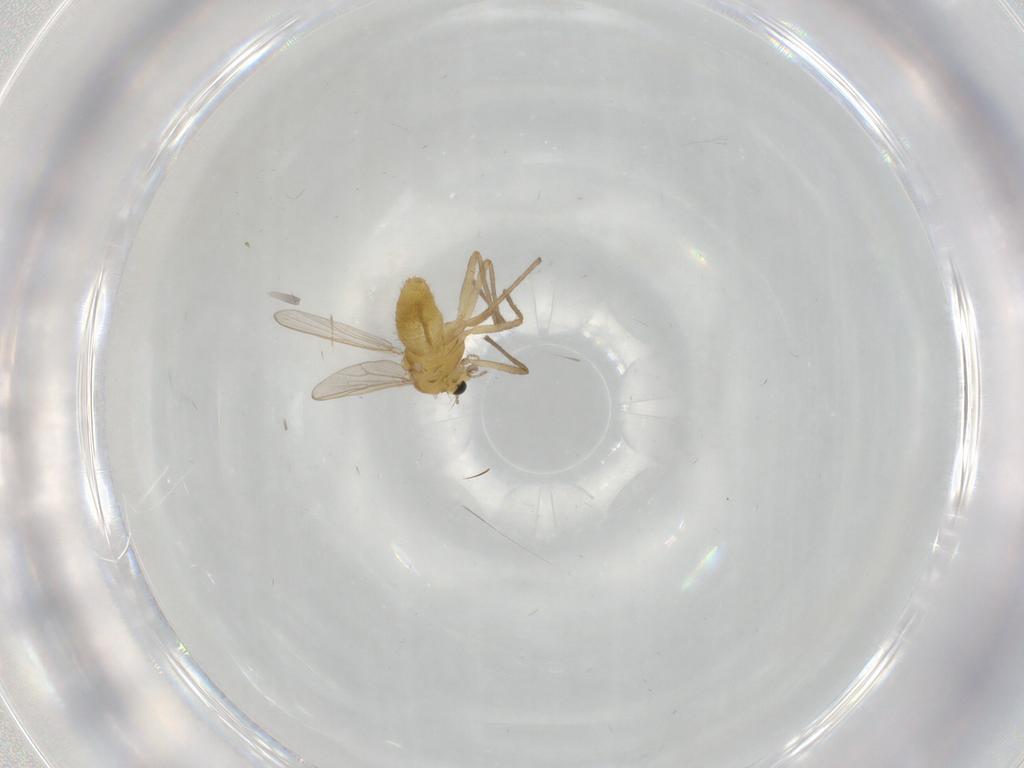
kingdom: Animalia
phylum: Arthropoda
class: Insecta
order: Diptera
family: Chironomidae
